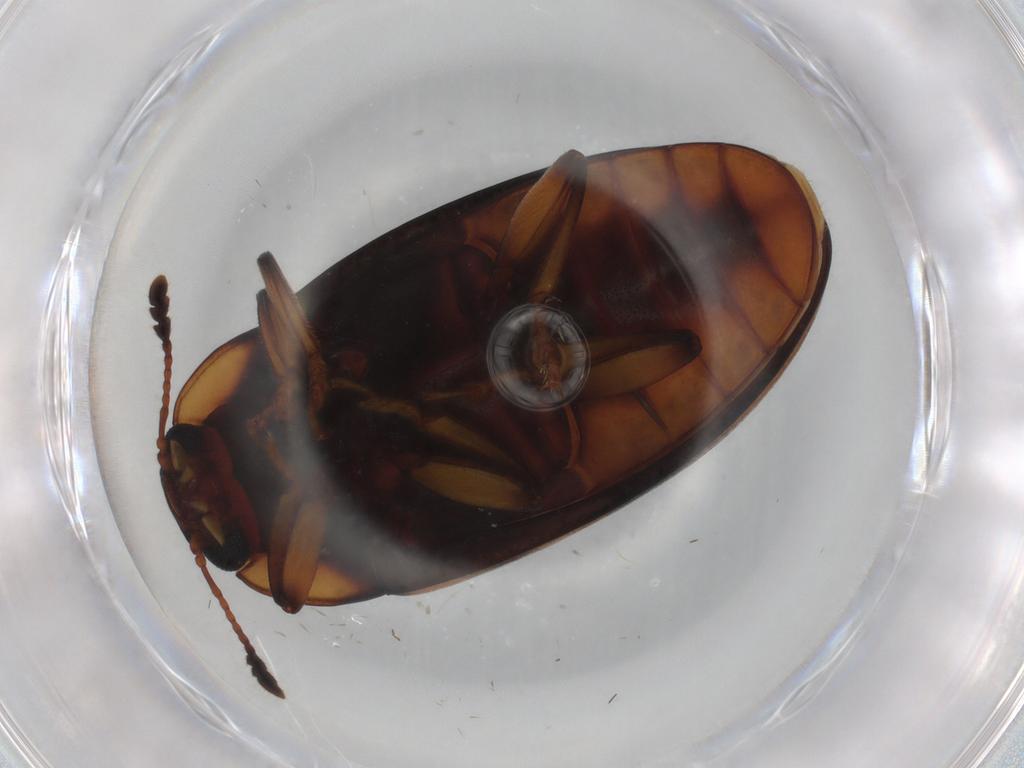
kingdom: Animalia
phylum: Arthropoda
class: Insecta
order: Coleoptera
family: Erotylidae
